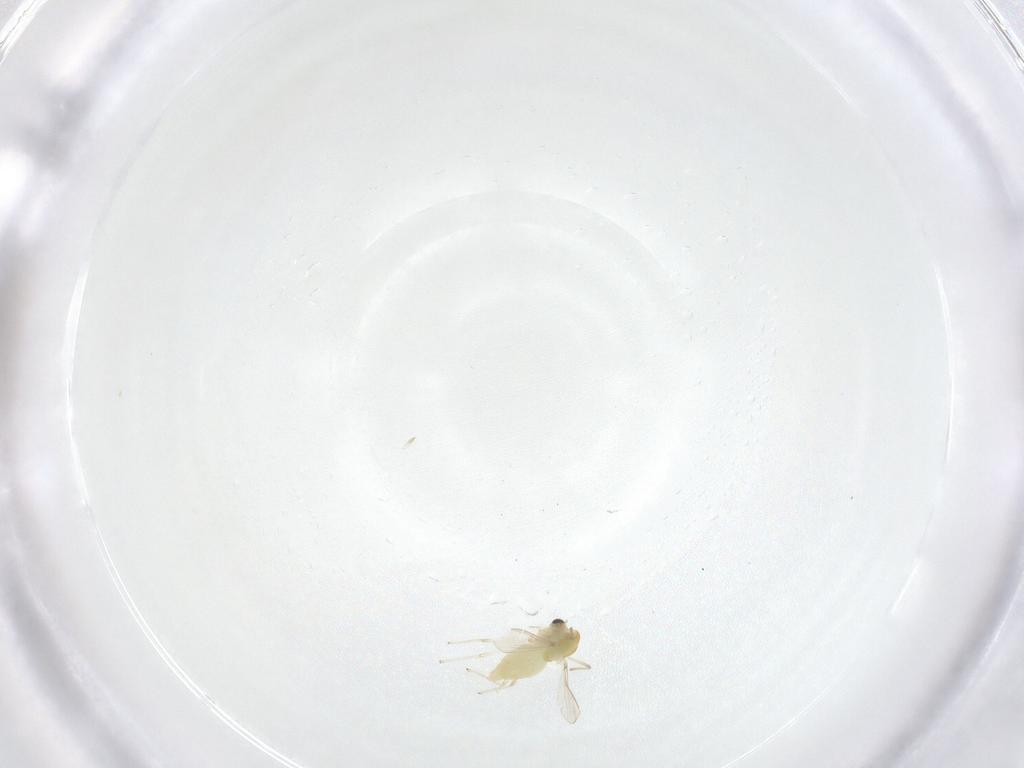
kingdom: Animalia
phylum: Arthropoda
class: Insecta
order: Diptera
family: Chironomidae
